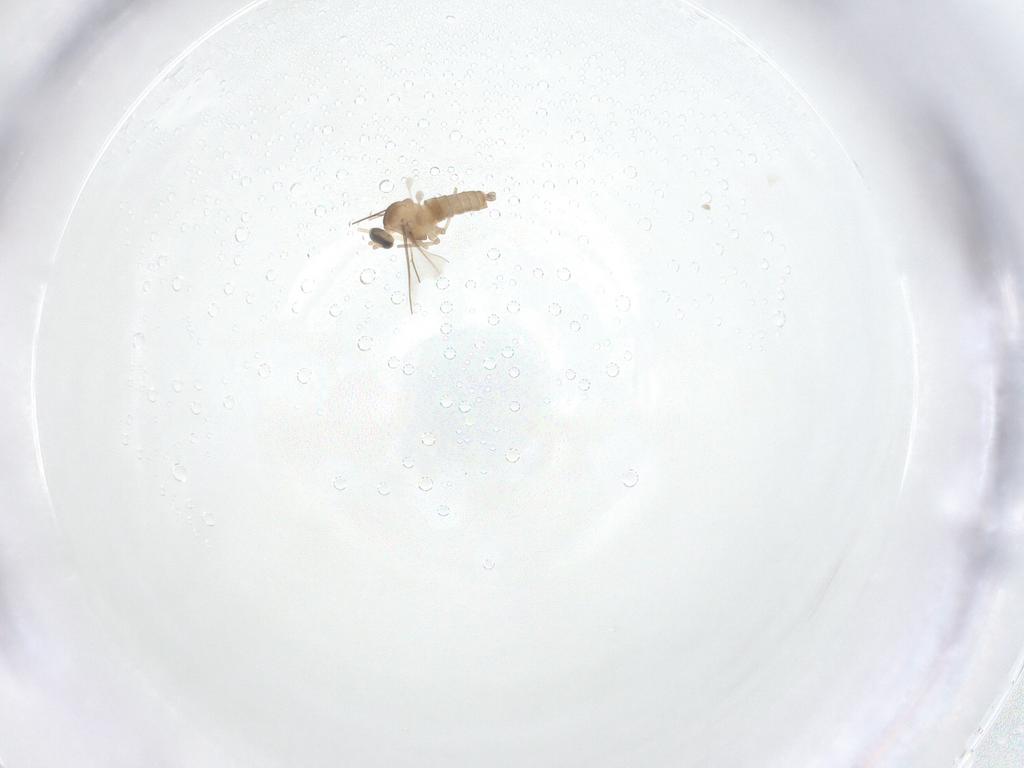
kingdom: Animalia
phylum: Arthropoda
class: Insecta
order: Diptera
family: Cecidomyiidae
